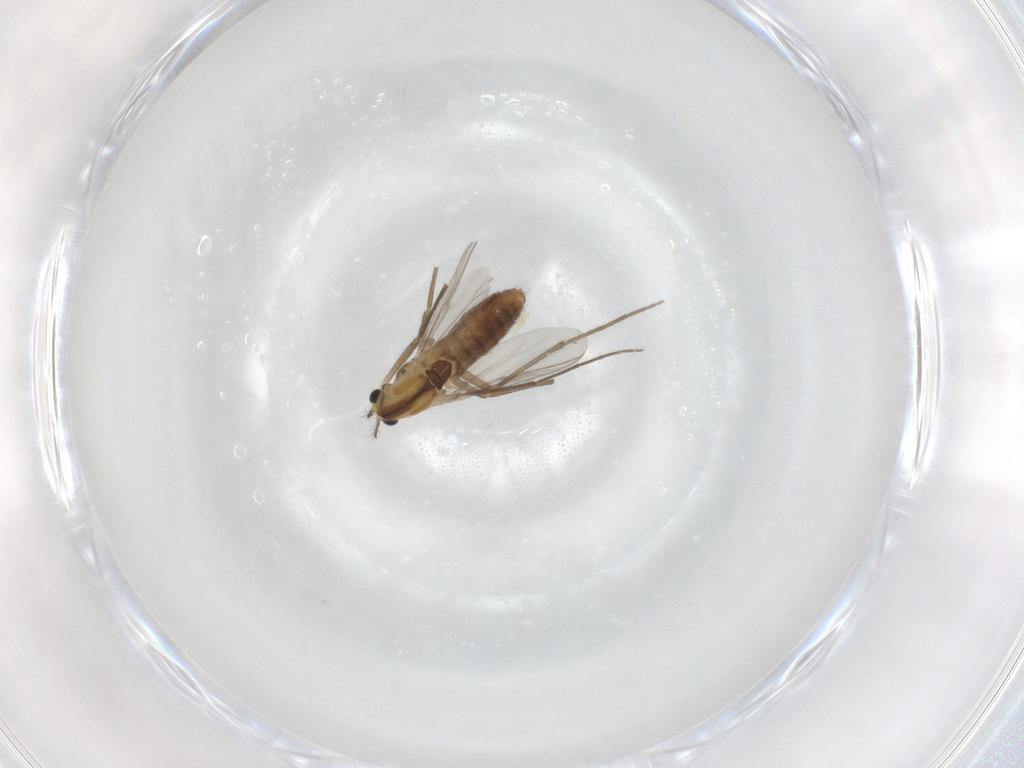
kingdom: Animalia
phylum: Arthropoda
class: Insecta
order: Diptera
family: Chironomidae
